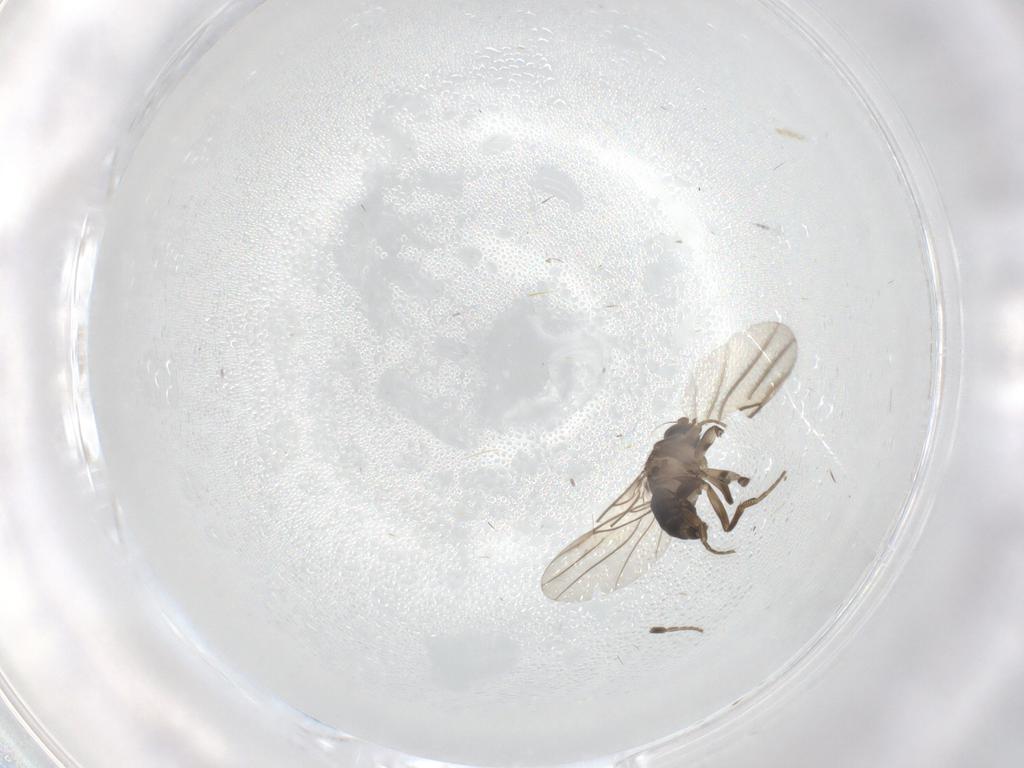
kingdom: Animalia
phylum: Arthropoda
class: Insecta
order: Diptera
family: Phoridae
